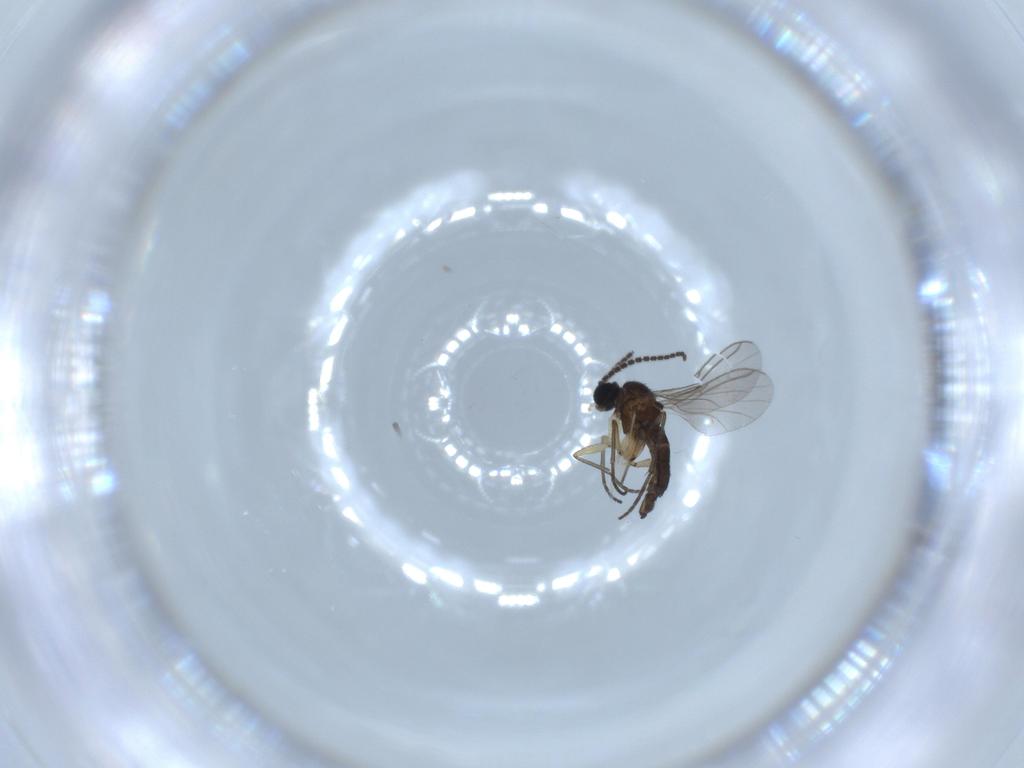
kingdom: Animalia
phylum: Arthropoda
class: Insecta
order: Diptera
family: Sciaridae
